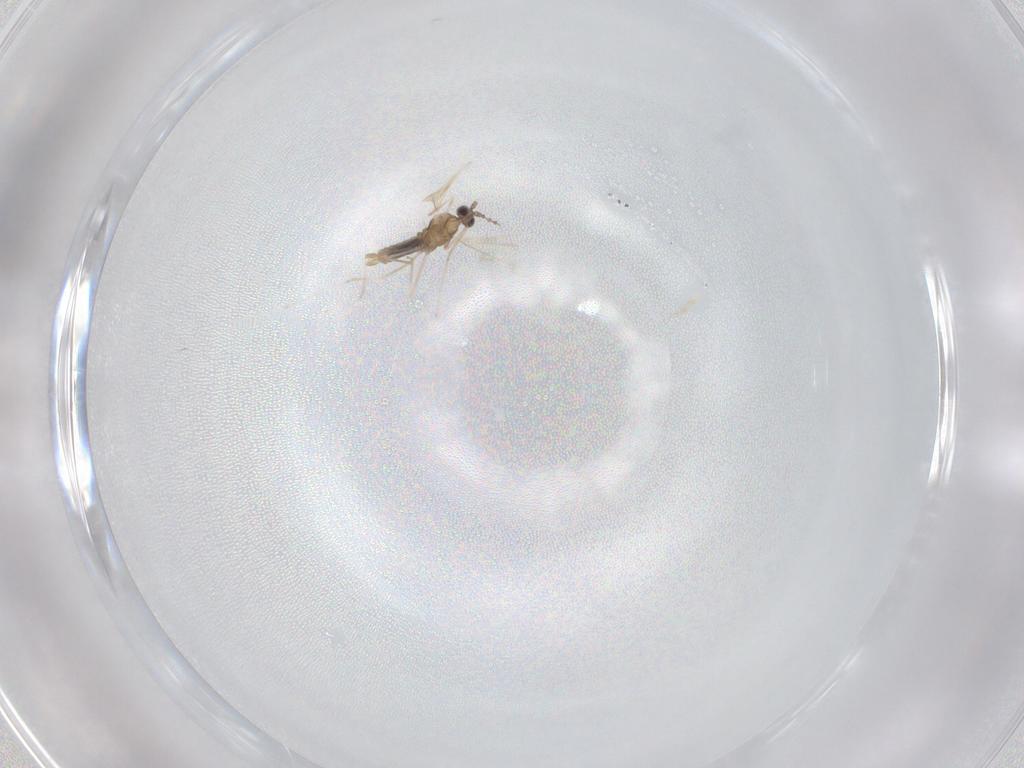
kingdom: Animalia
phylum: Arthropoda
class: Insecta
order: Diptera
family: Cecidomyiidae
